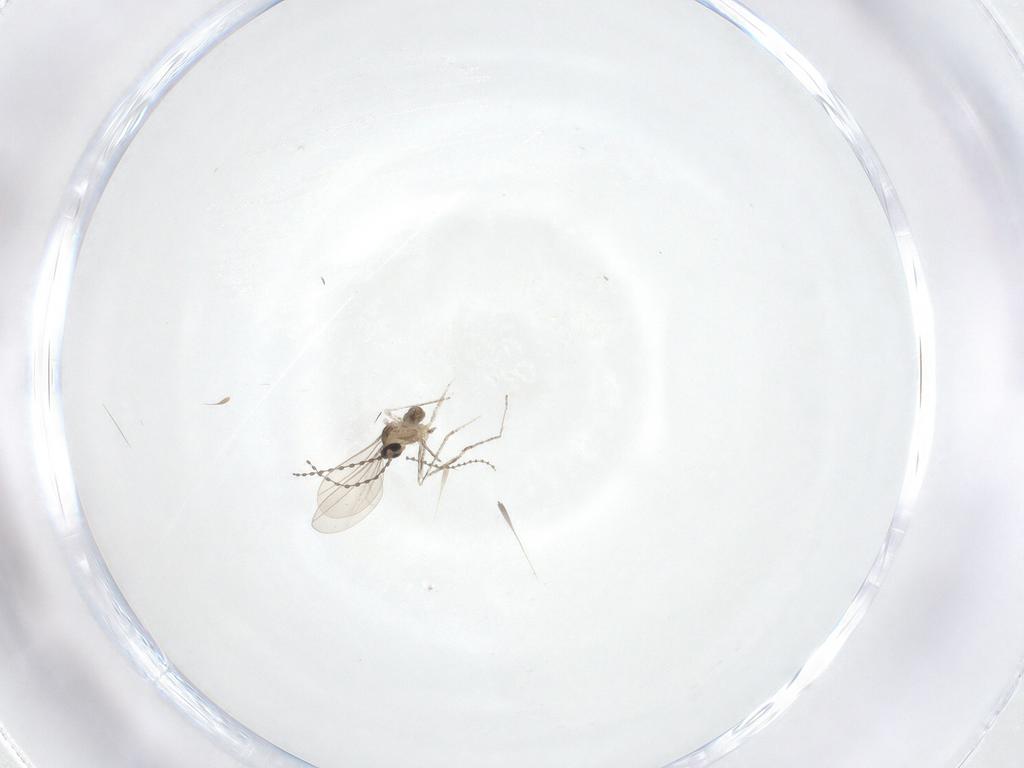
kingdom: Animalia
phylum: Arthropoda
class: Insecta
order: Diptera
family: Cecidomyiidae
